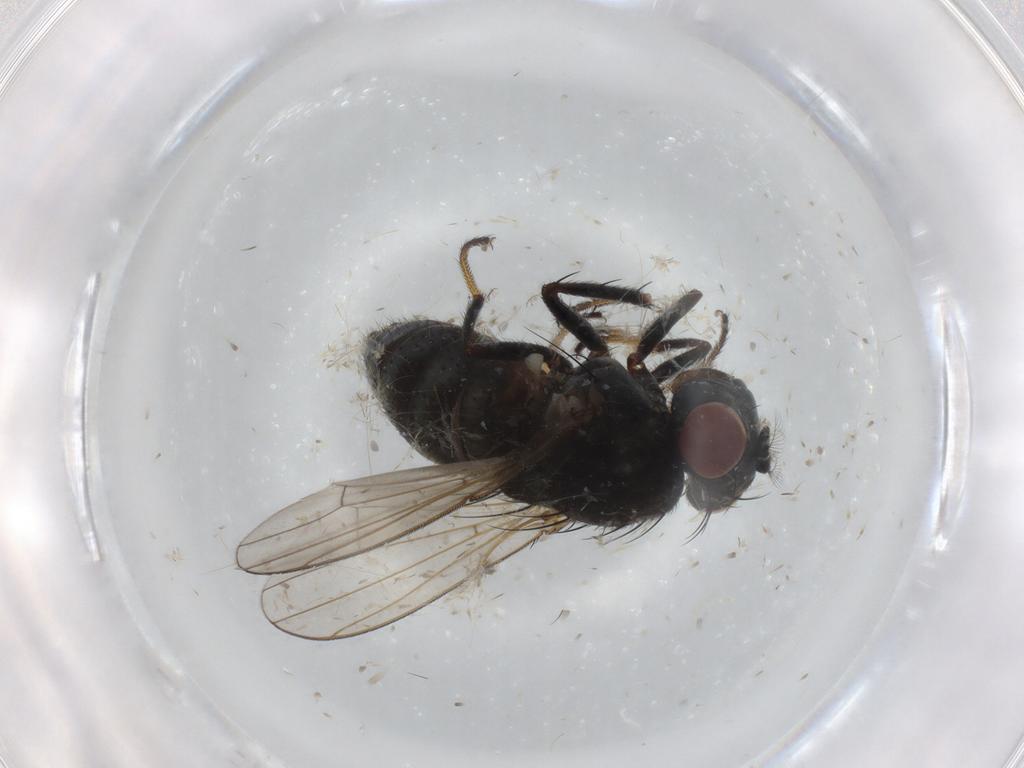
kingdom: Animalia
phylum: Arthropoda
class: Insecta
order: Diptera
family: Ephydridae
